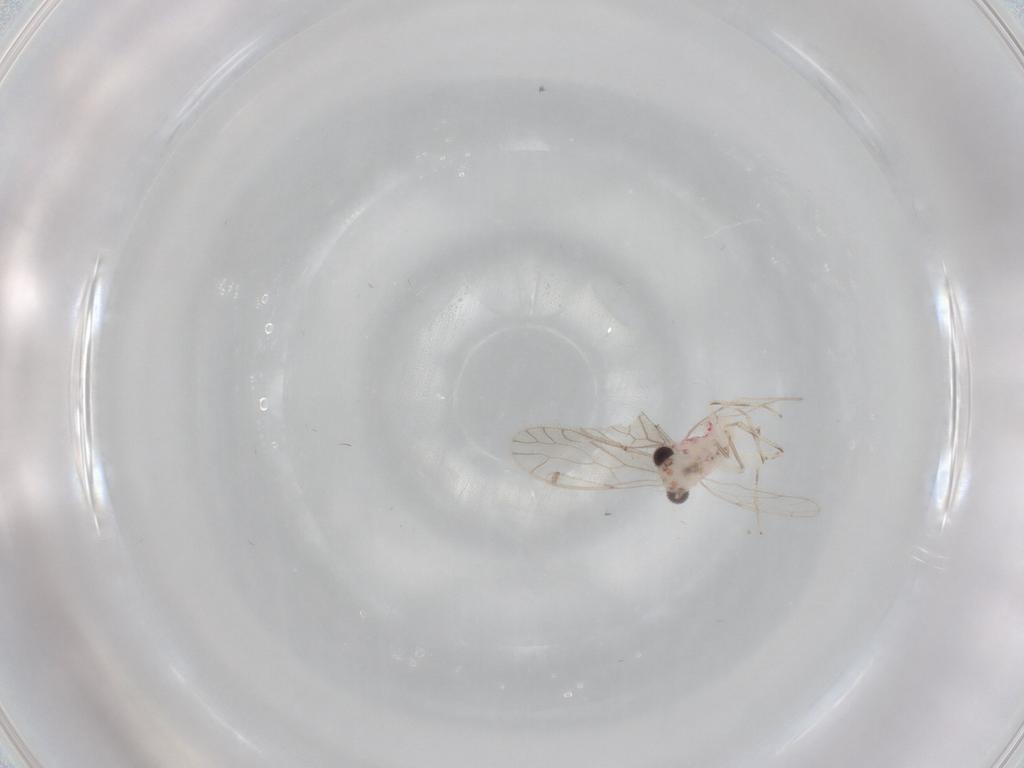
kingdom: Animalia
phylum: Arthropoda
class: Insecta
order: Psocodea
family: Caeciliusidae
